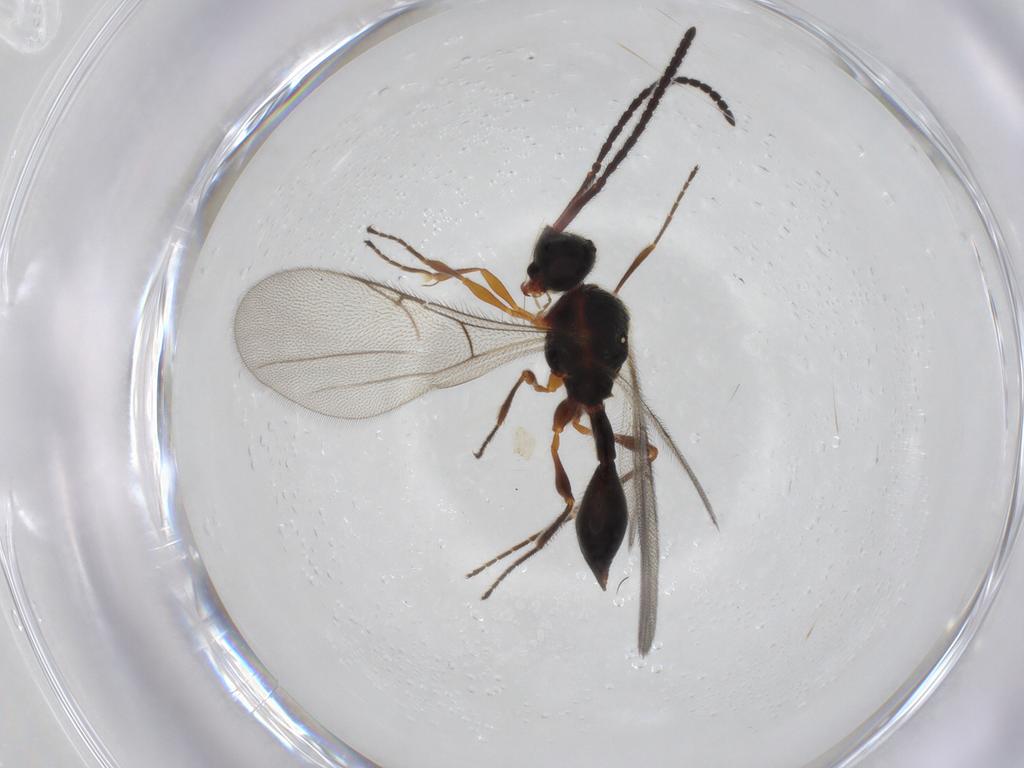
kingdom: Animalia
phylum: Arthropoda
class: Insecta
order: Hymenoptera
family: Diapriidae
